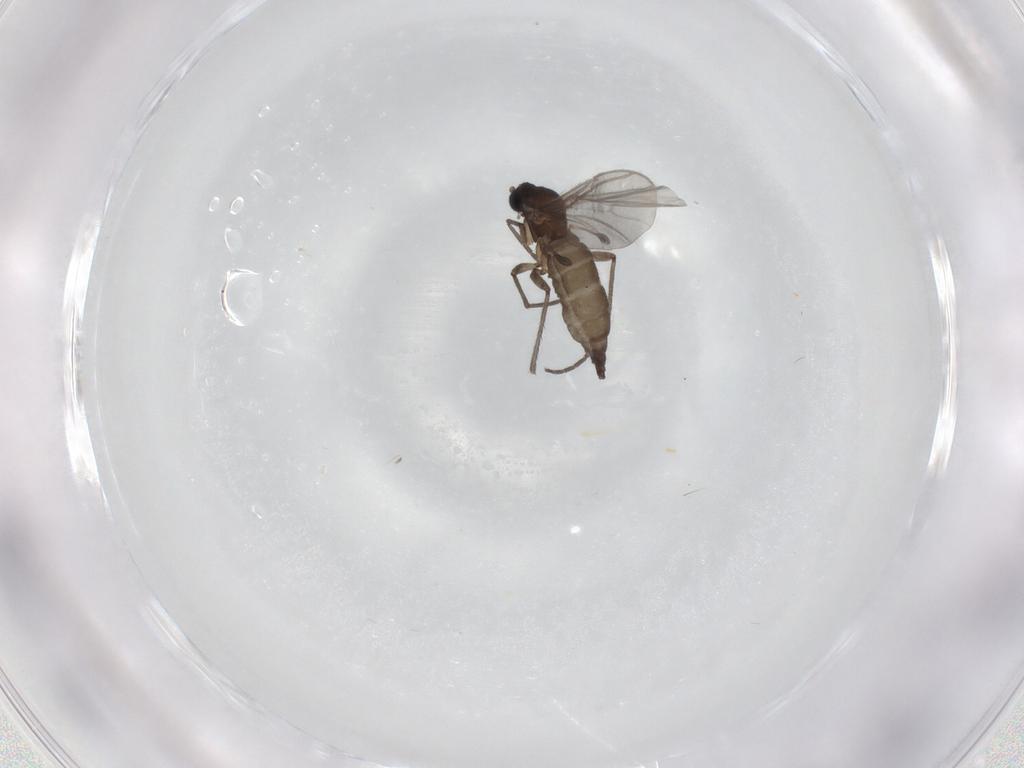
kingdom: Animalia
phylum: Arthropoda
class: Insecta
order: Diptera
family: Sciaridae
